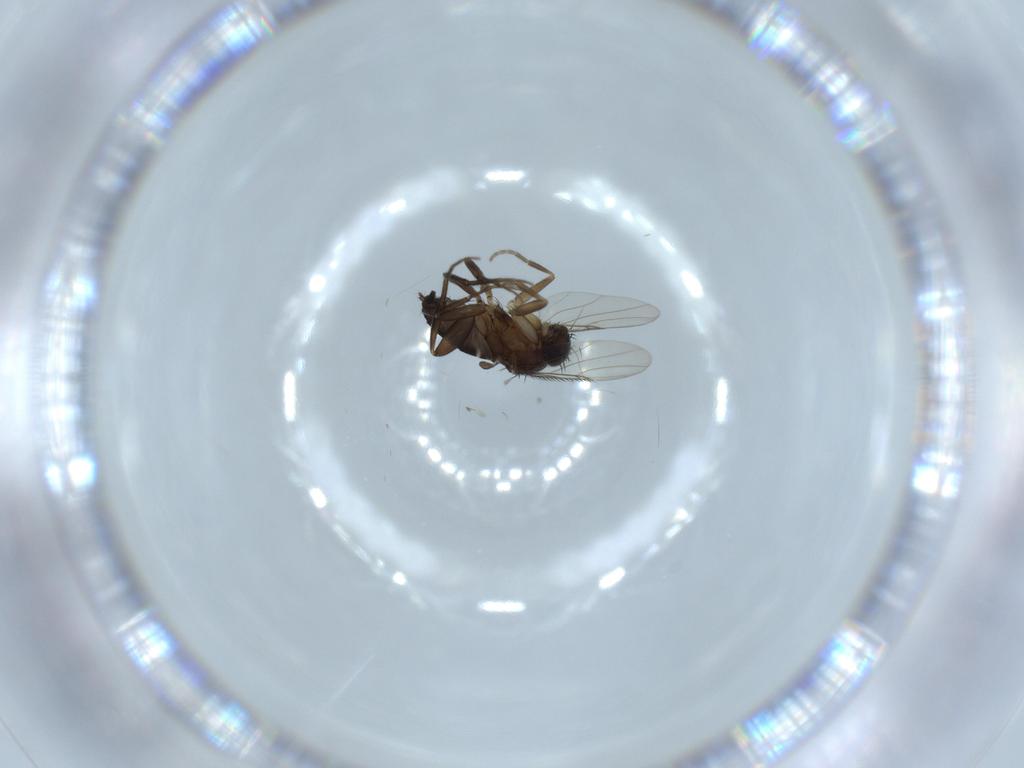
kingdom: Animalia
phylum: Arthropoda
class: Insecta
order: Diptera
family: Phoridae
